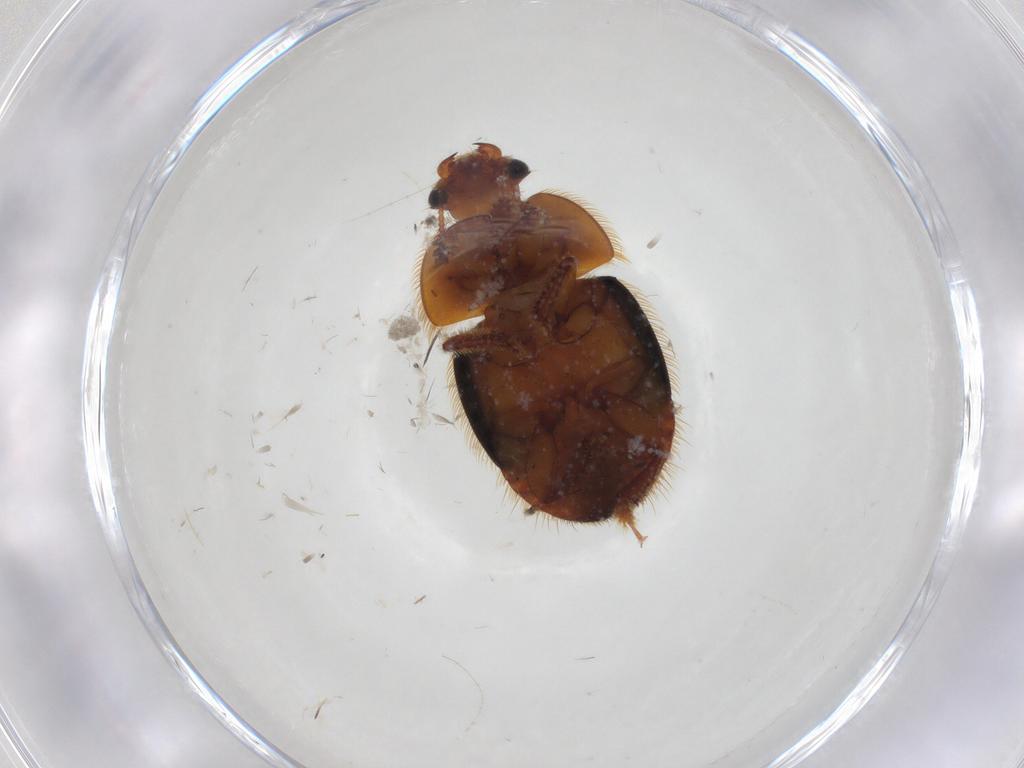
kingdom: Animalia
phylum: Arthropoda
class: Insecta
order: Coleoptera
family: Nitidulidae
